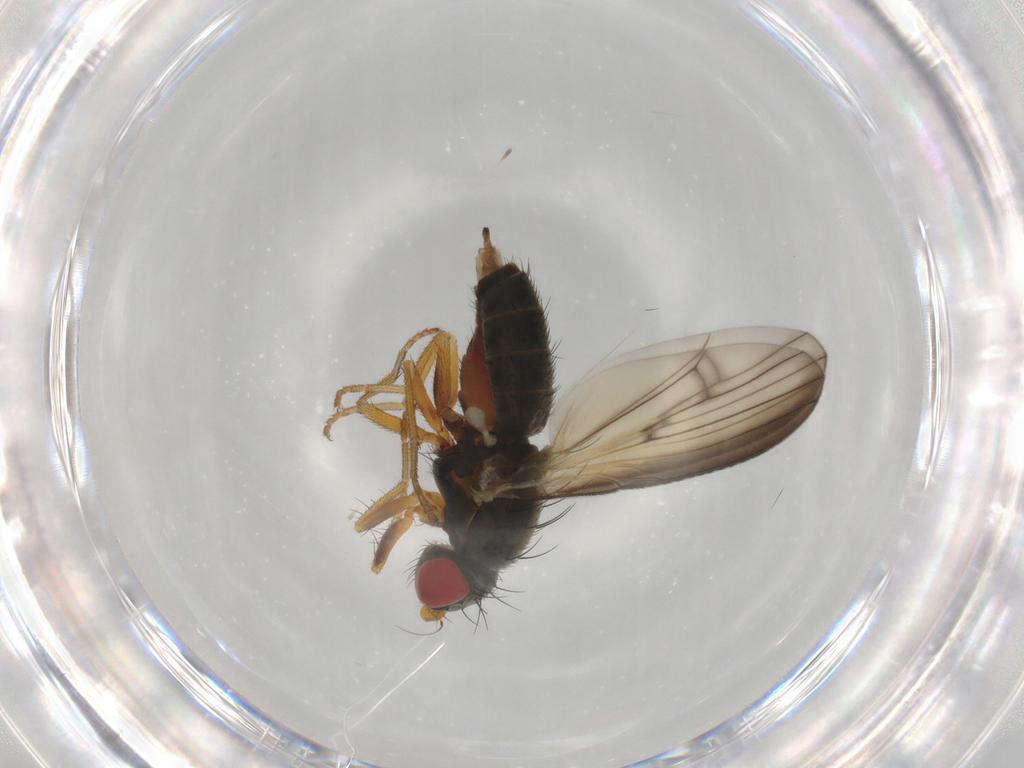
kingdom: Animalia
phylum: Arthropoda
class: Insecta
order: Diptera
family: Chamaemyiidae
